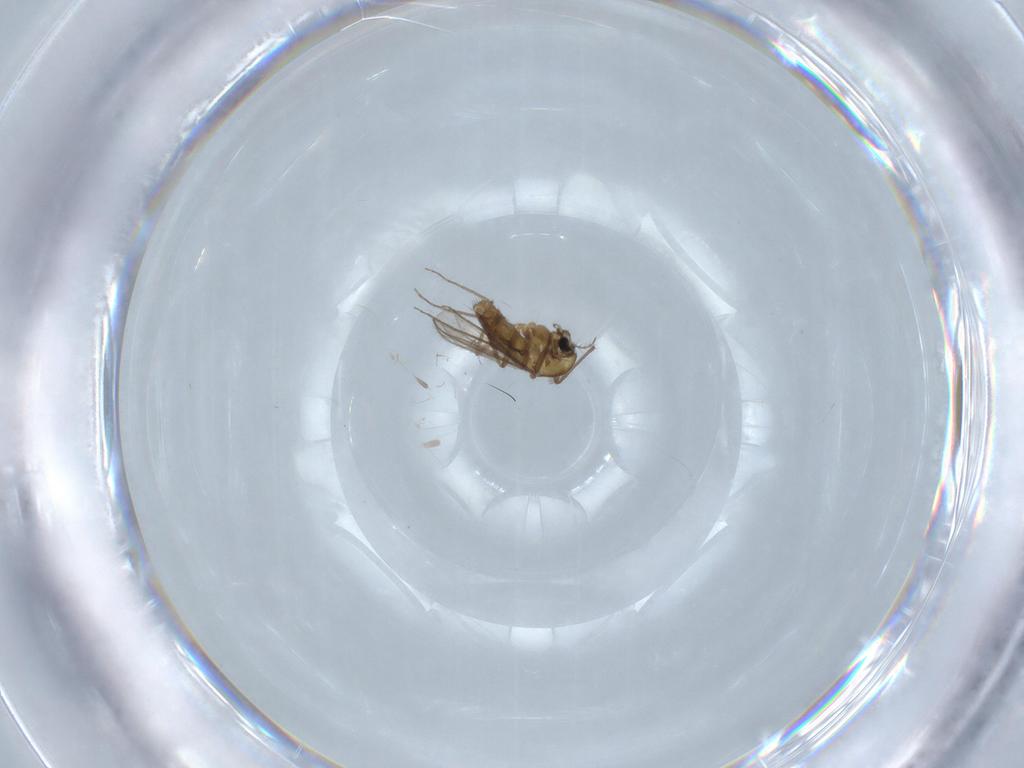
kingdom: Animalia
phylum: Arthropoda
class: Insecta
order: Diptera
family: Chironomidae
